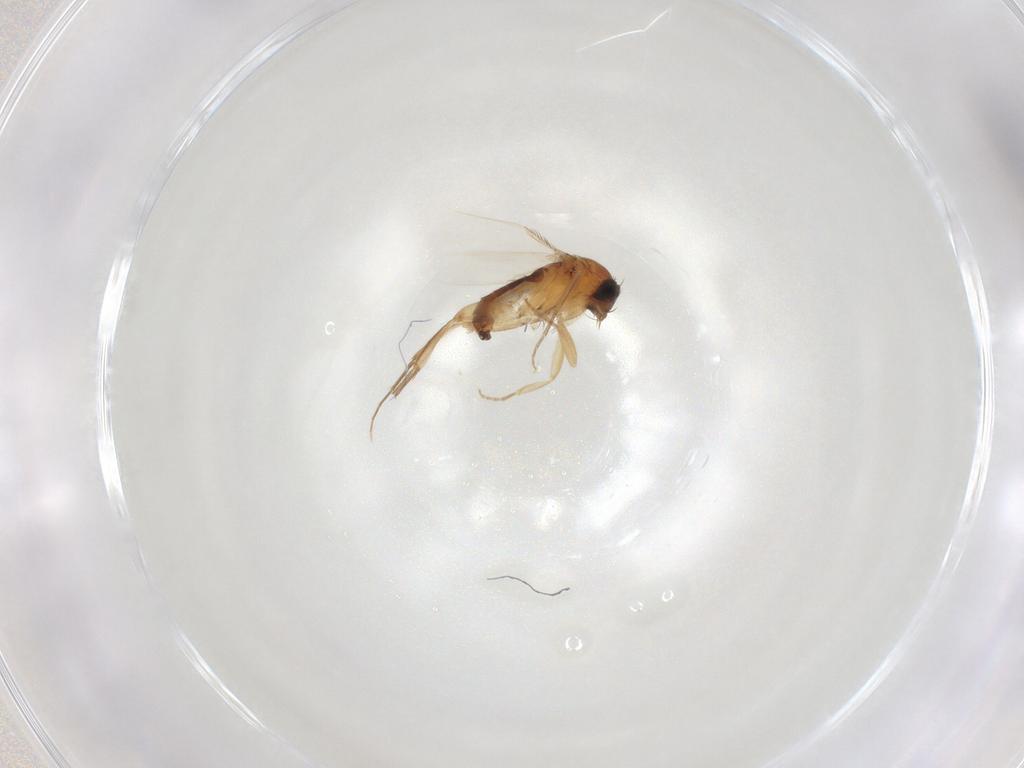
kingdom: Animalia
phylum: Arthropoda
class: Insecta
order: Diptera
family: Phoridae
